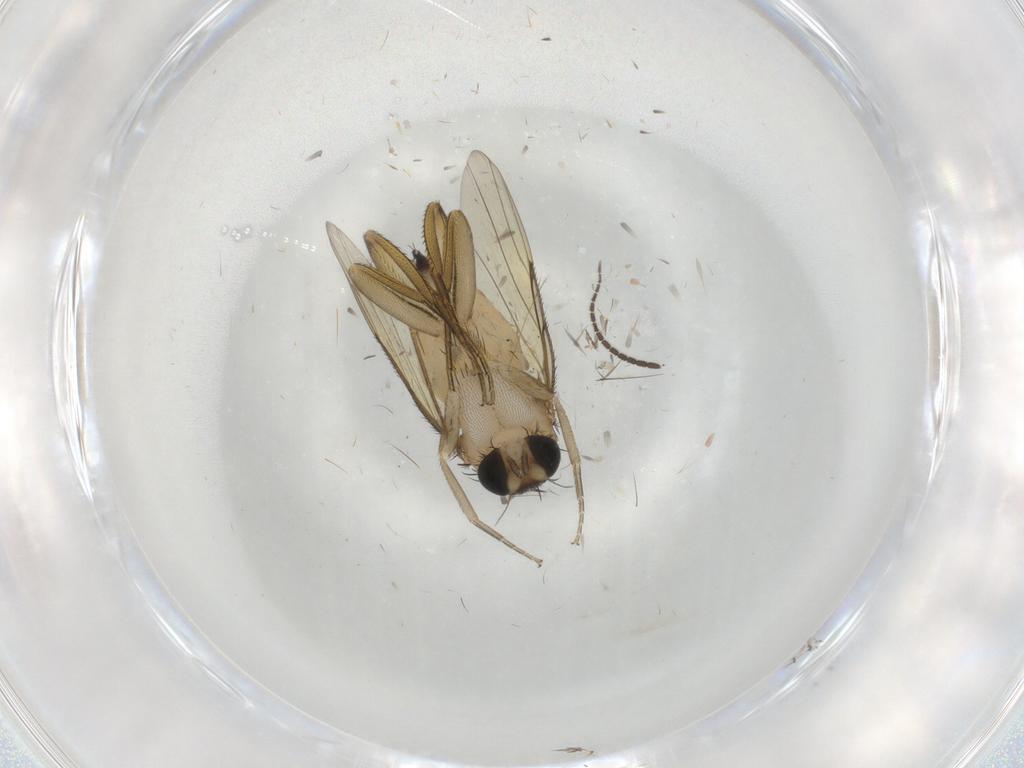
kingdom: Animalia
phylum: Arthropoda
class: Insecta
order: Diptera
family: Phoridae
